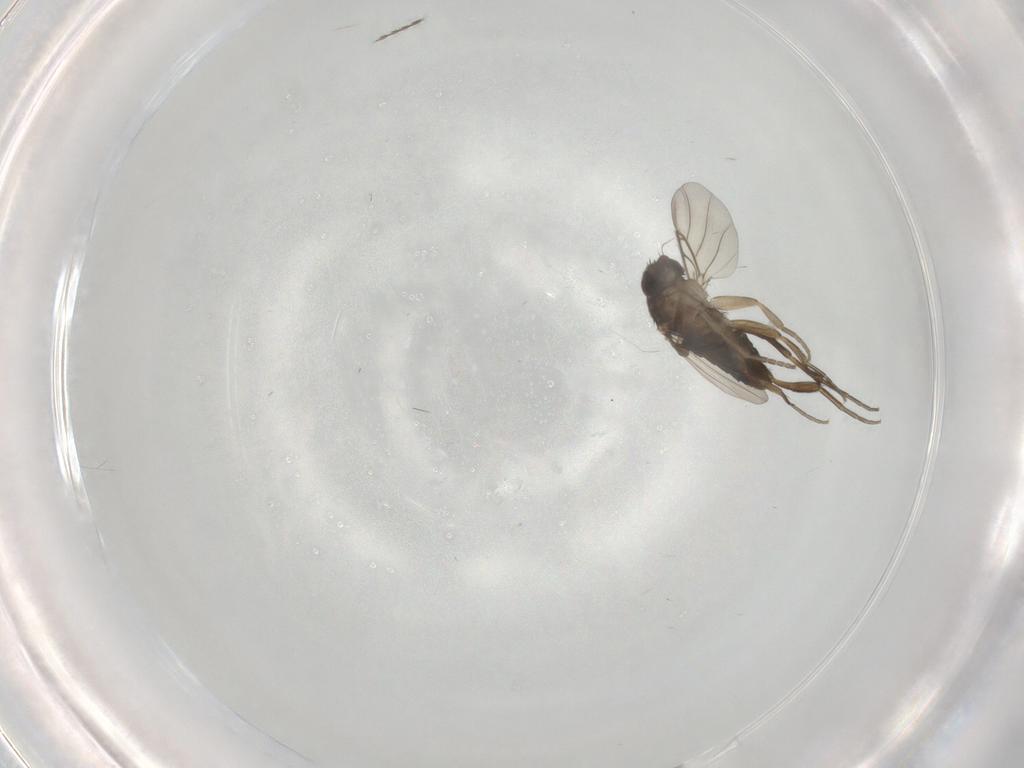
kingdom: Animalia
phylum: Arthropoda
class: Insecta
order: Diptera
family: Phoridae
